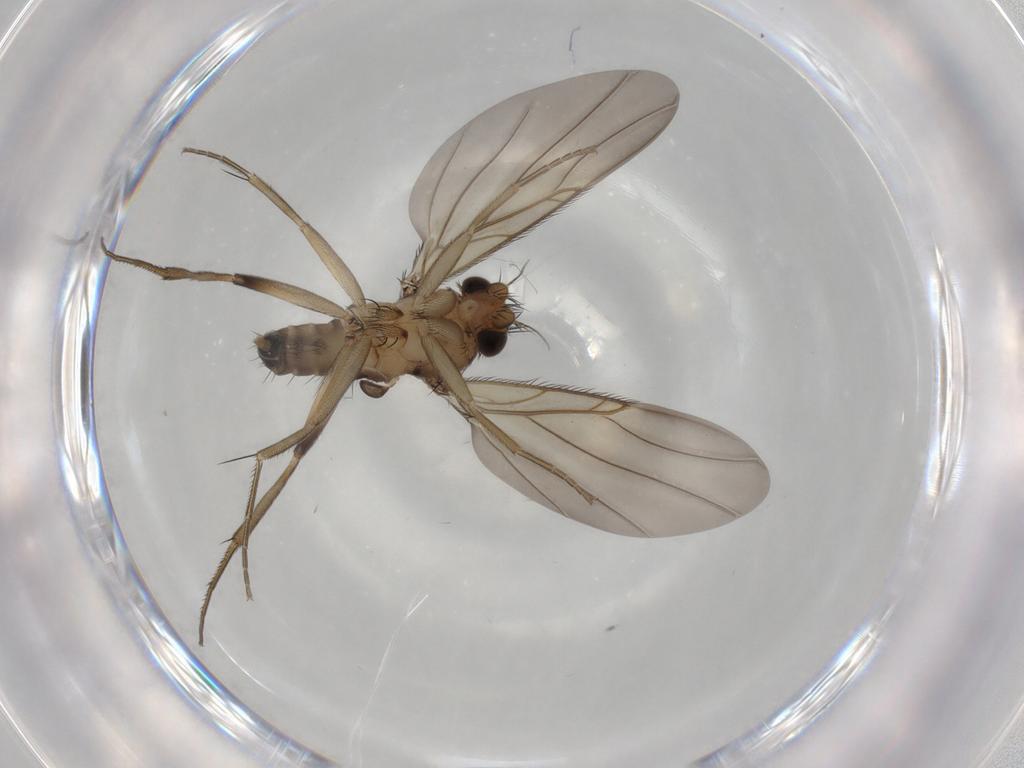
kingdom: Animalia
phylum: Arthropoda
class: Insecta
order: Diptera
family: Phoridae
